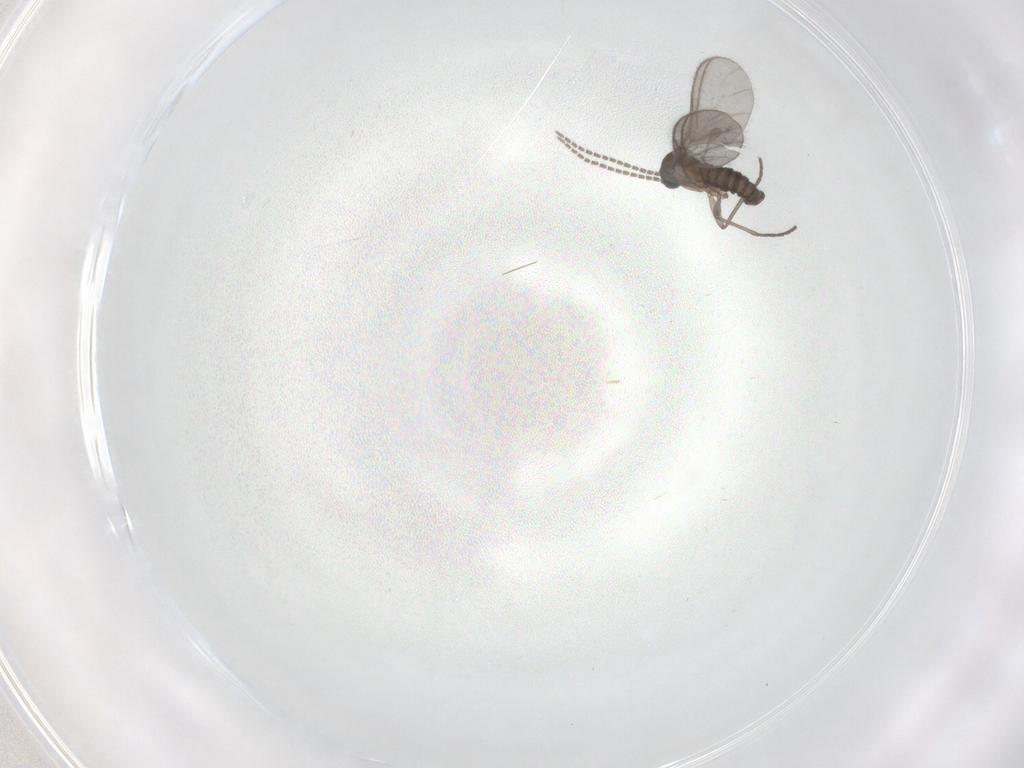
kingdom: Animalia
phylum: Arthropoda
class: Insecta
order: Diptera
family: Sciaridae
